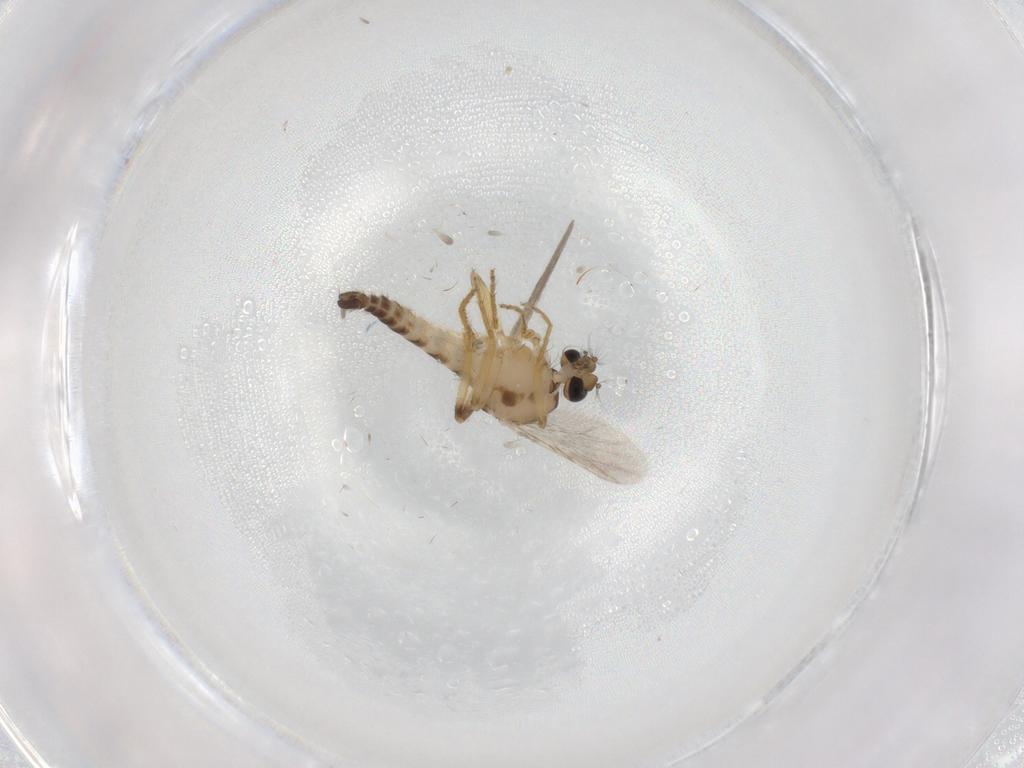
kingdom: Animalia
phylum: Arthropoda
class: Insecta
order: Diptera
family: Ceratopogonidae
